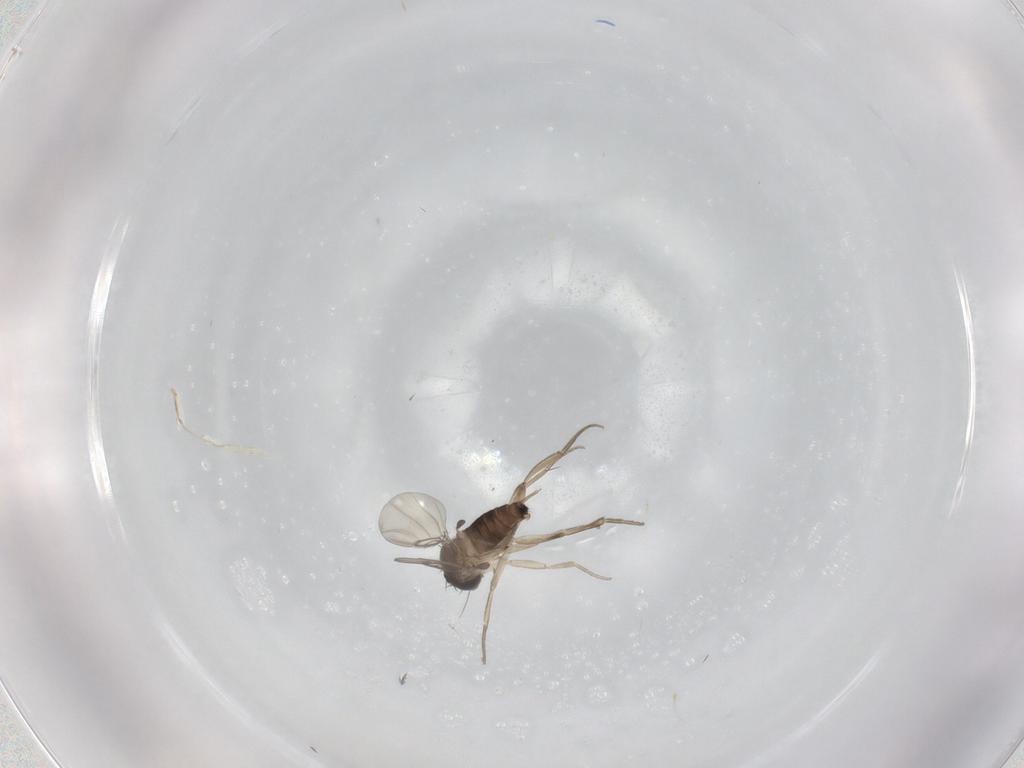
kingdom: Animalia
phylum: Arthropoda
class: Insecta
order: Diptera
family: Phoridae
